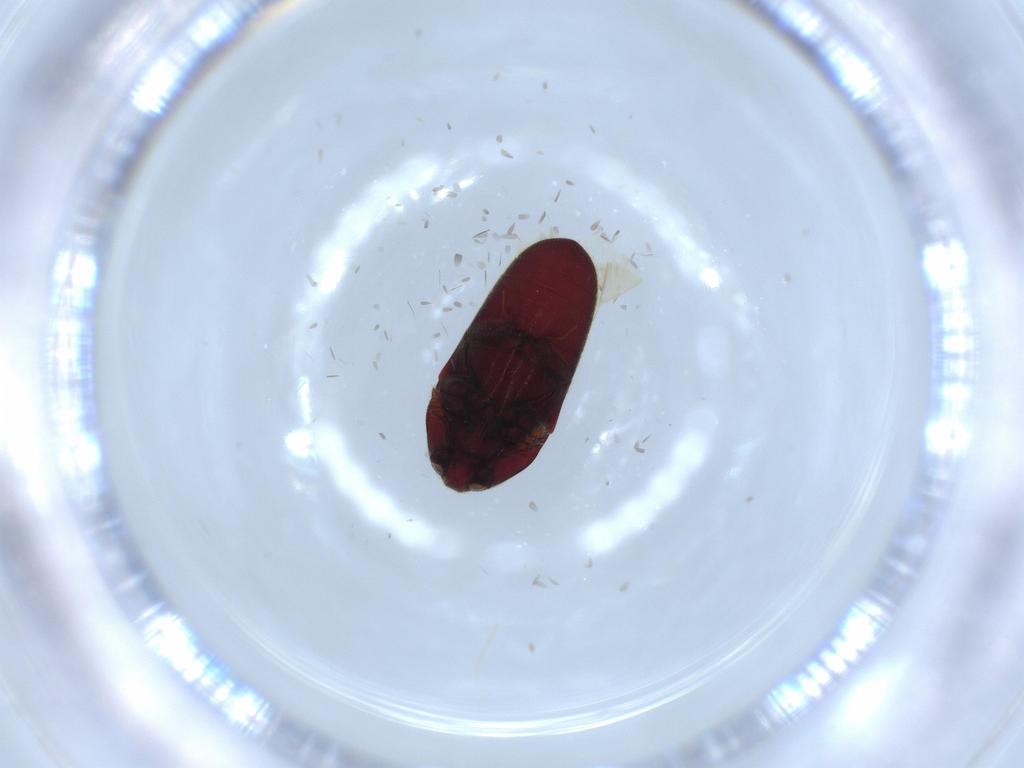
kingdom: Animalia
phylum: Arthropoda
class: Insecta
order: Coleoptera
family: Throscidae
